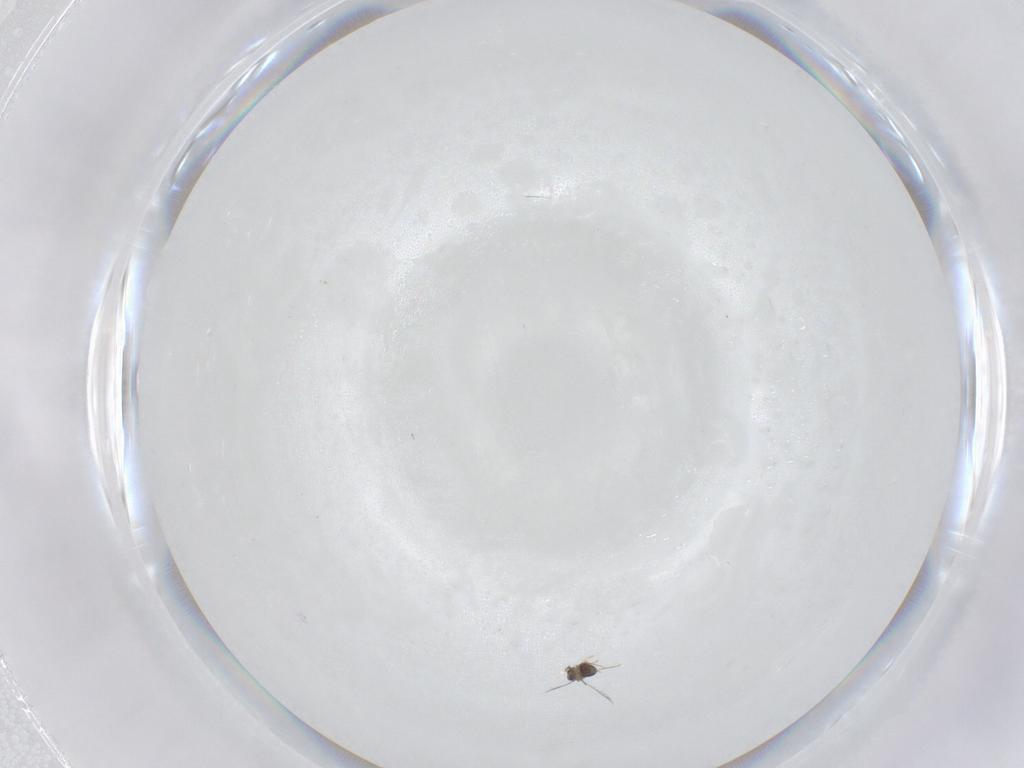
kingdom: Animalia
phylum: Arthropoda
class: Insecta
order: Hymenoptera
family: Mymaridae
